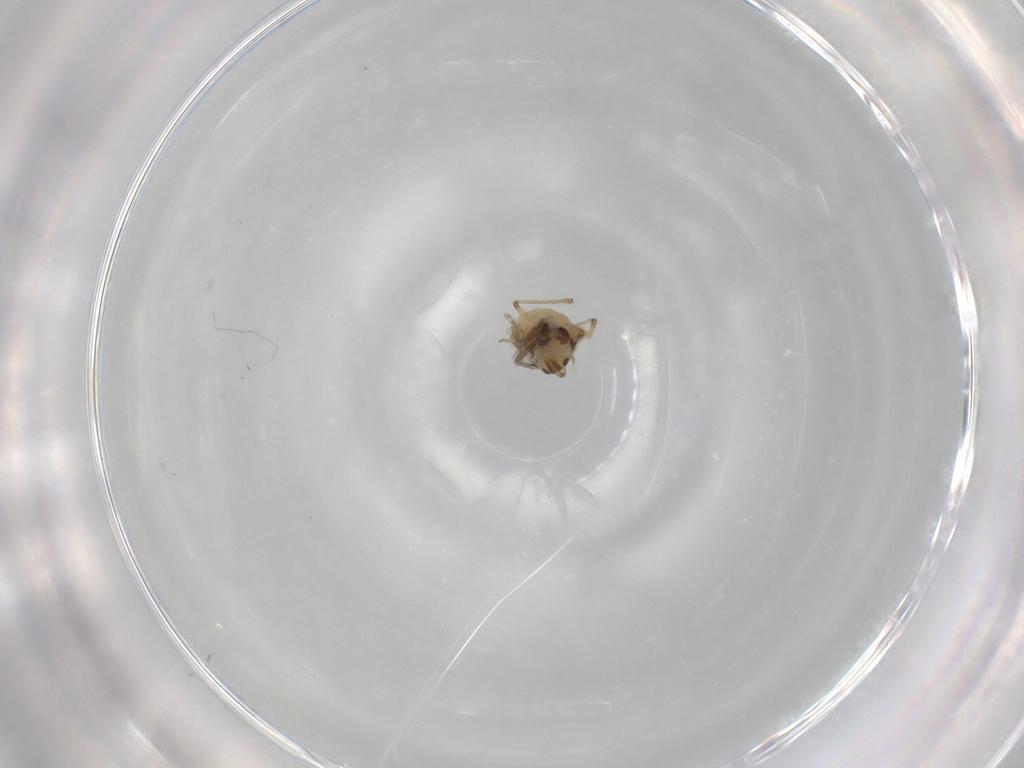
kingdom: Animalia
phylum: Arthropoda
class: Insecta
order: Diptera
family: Chironomidae
